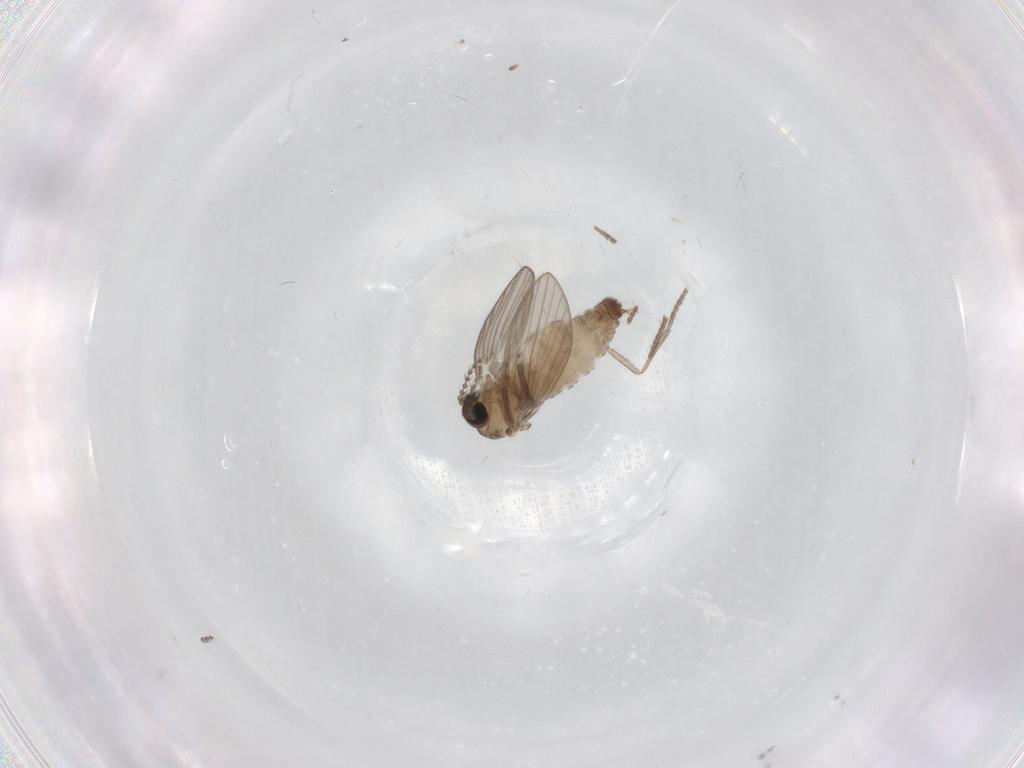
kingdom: Animalia
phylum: Arthropoda
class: Insecta
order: Diptera
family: Psychodidae
